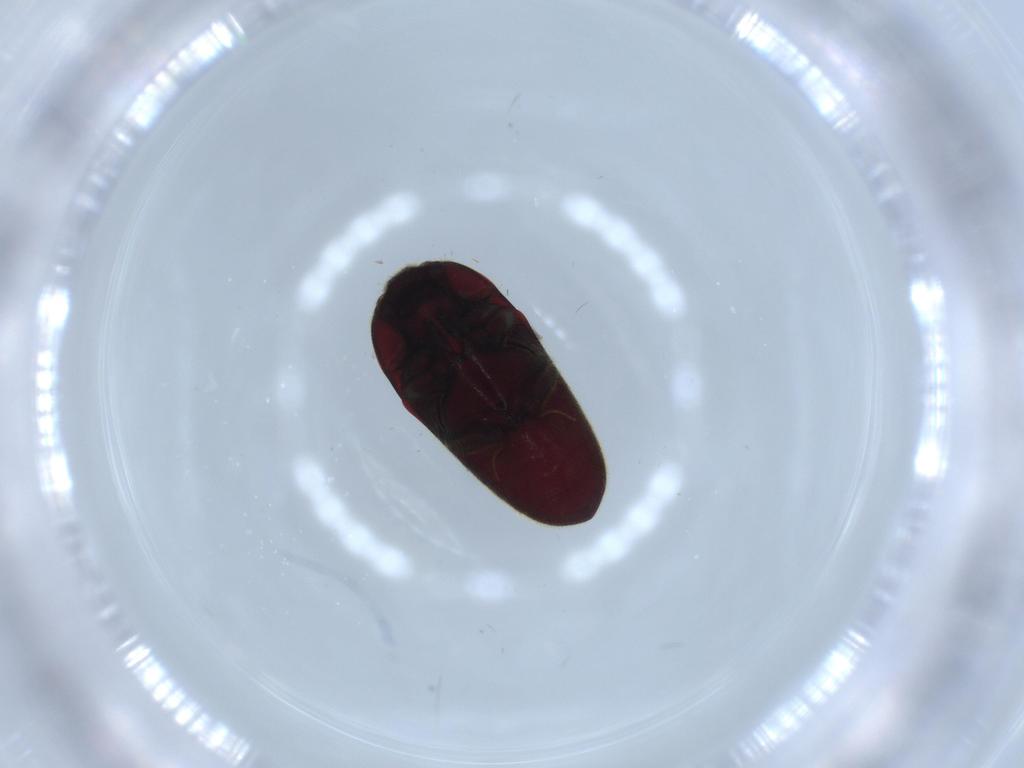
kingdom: Animalia
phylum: Arthropoda
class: Insecta
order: Coleoptera
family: Throscidae
